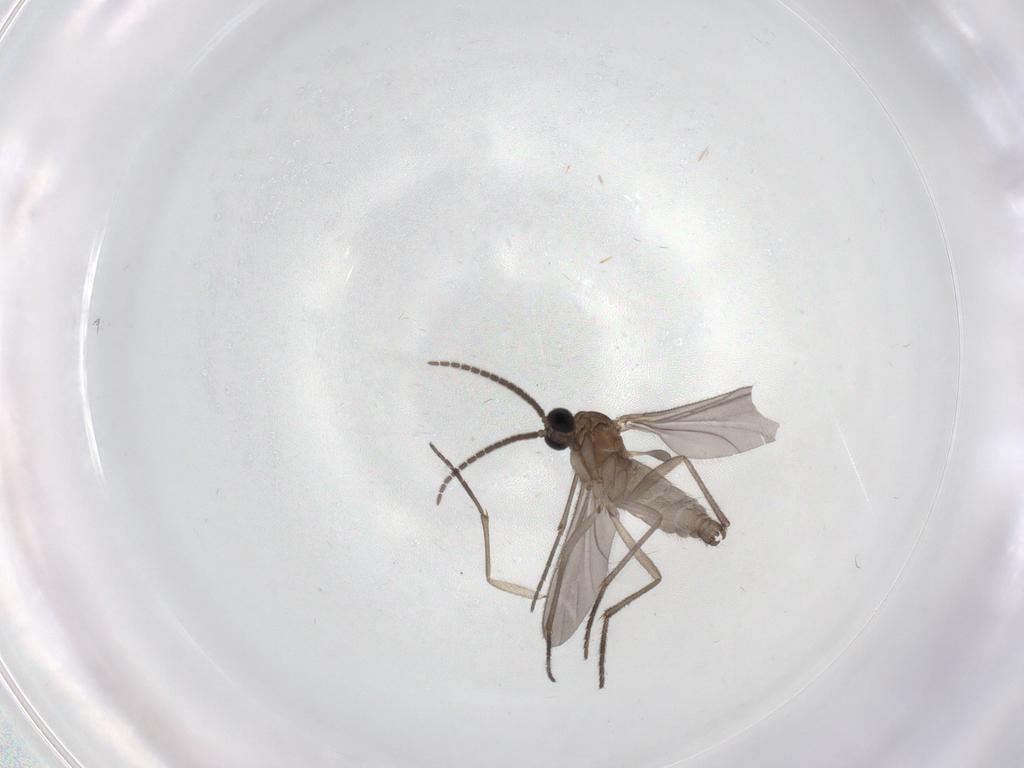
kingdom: Animalia
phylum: Arthropoda
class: Insecta
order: Diptera
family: Sciaridae
